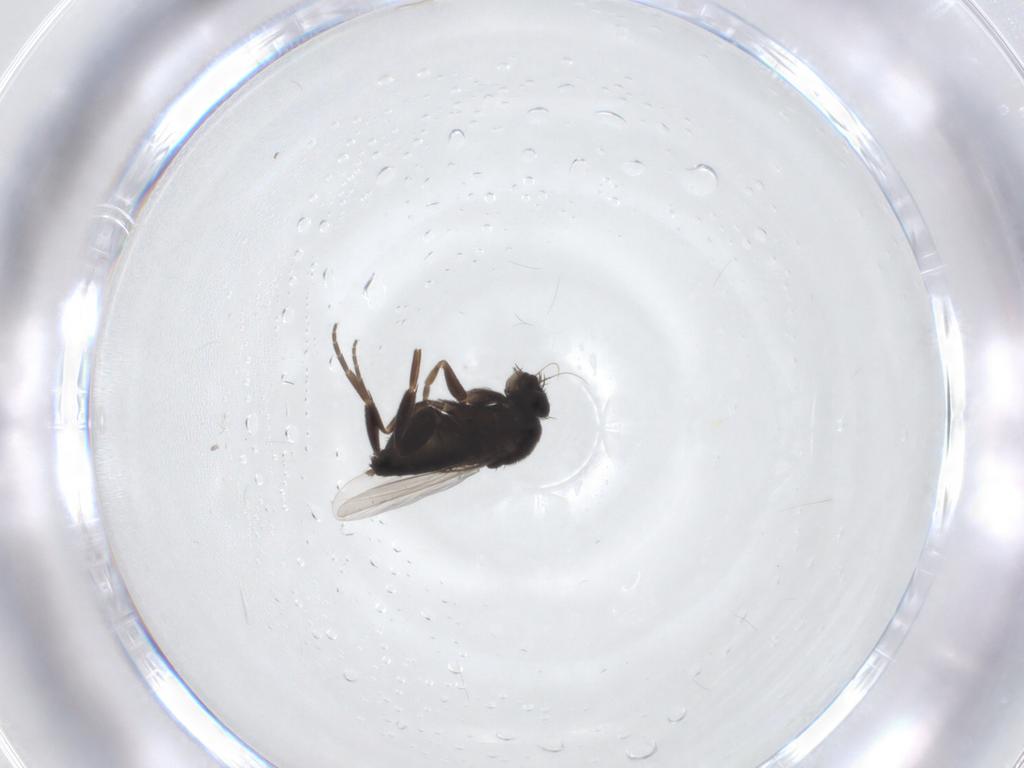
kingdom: Animalia
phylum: Arthropoda
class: Insecta
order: Diptera
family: Phoridae
